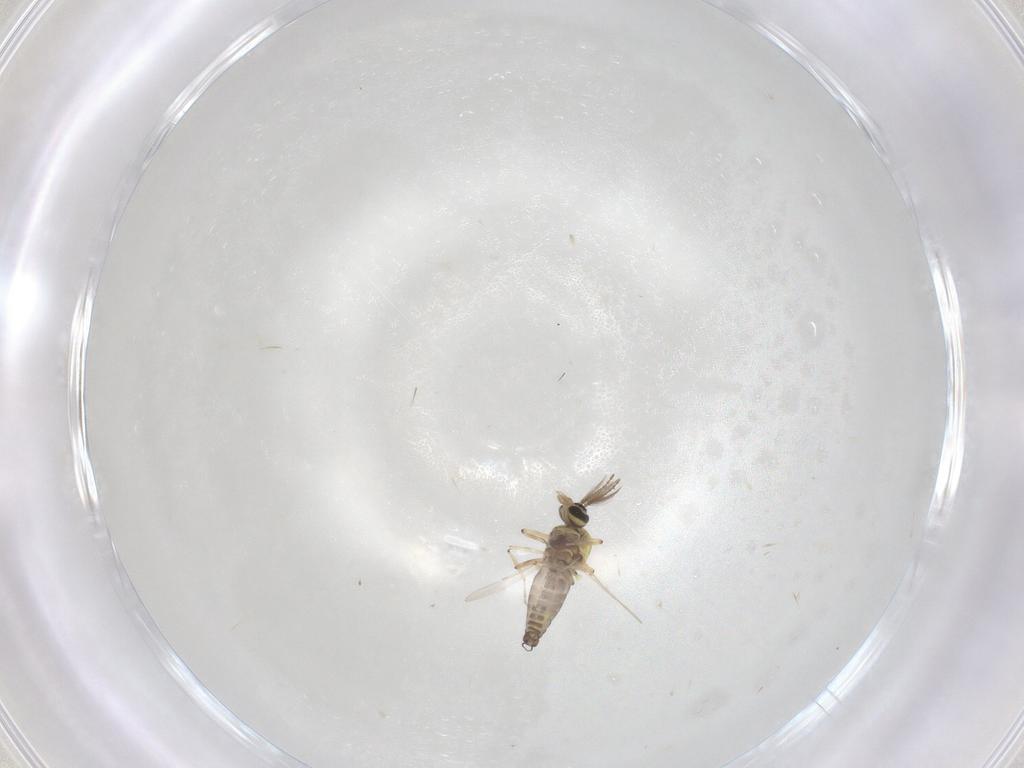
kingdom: Animalia
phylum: Arthropoda
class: Insecta
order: Diptera
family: Ceratopogonidae
